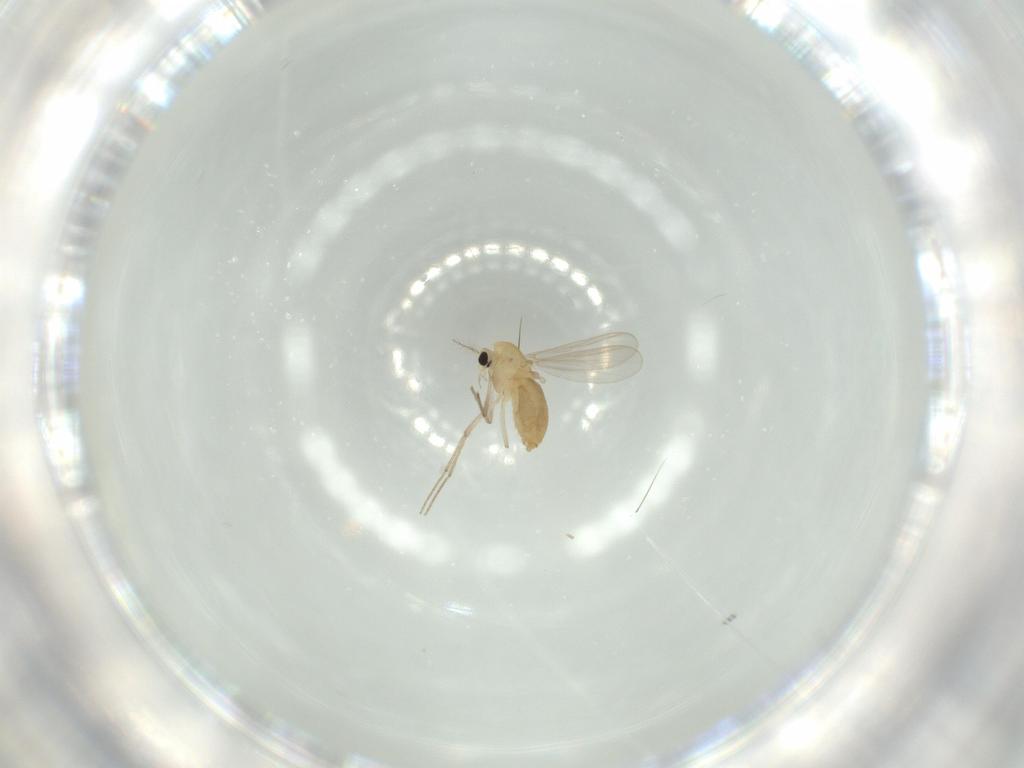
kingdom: Animalia
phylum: Arthropoda
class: Insecta
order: Diptera
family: Chironomidae
